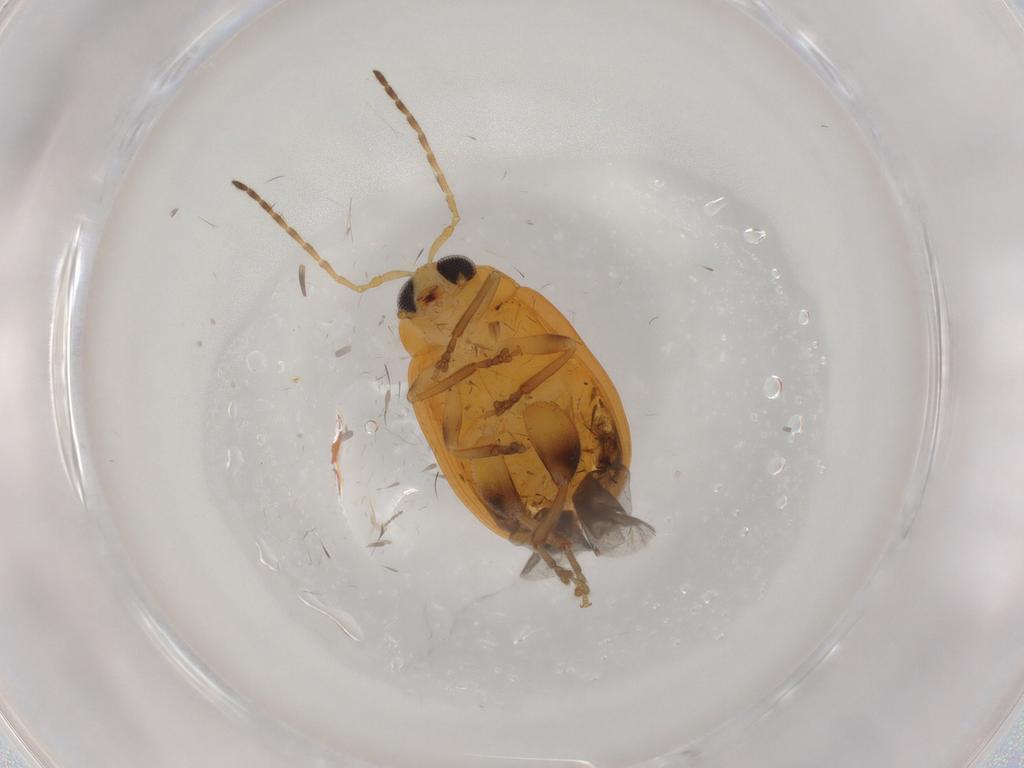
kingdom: Animalia
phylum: Arthropoda
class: Insecta
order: Coleoptera
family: Chrysomelidae
